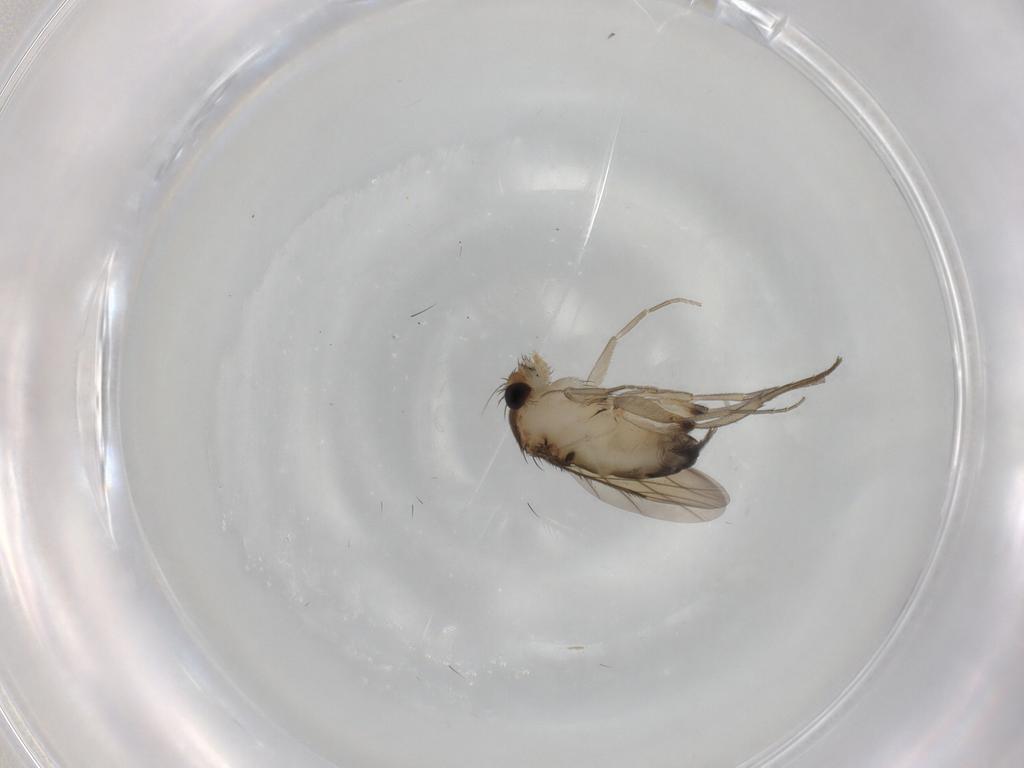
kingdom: Animalia
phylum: Arthropoda
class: Insecta
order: Diptera
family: Phoridae
